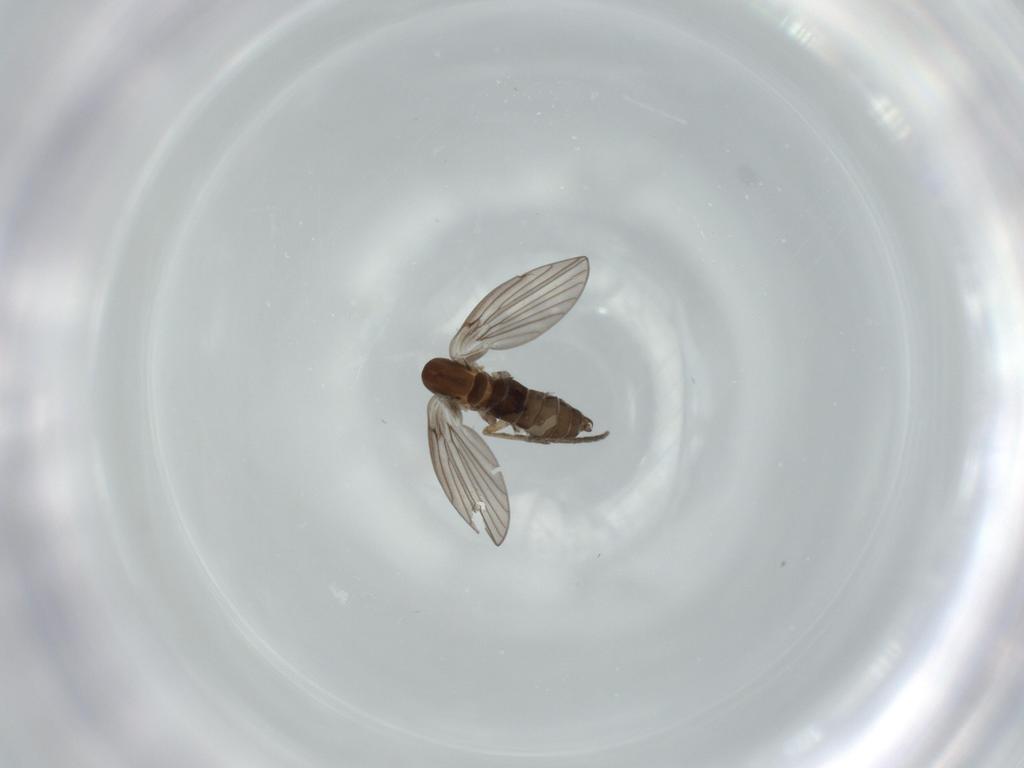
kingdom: Animalia
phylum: Arthropoda
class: Insecta
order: Diptera
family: Psychodidae
